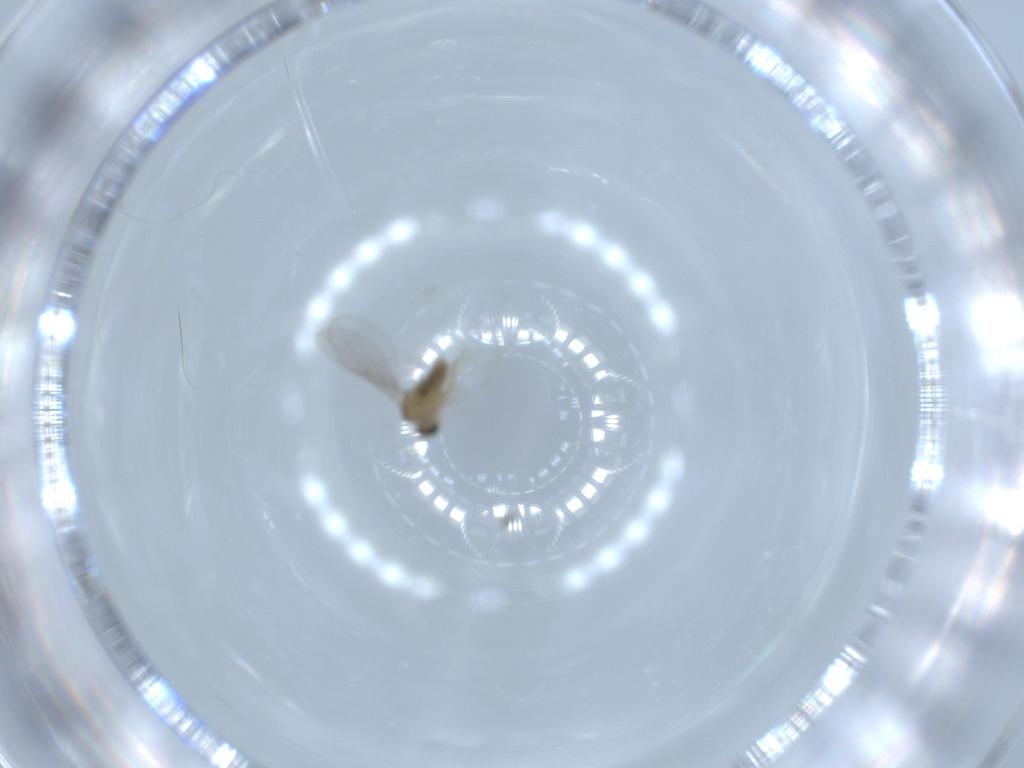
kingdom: Animalia
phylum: Arthropoda
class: Insecta
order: Diptera
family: Cecidomyiidae
